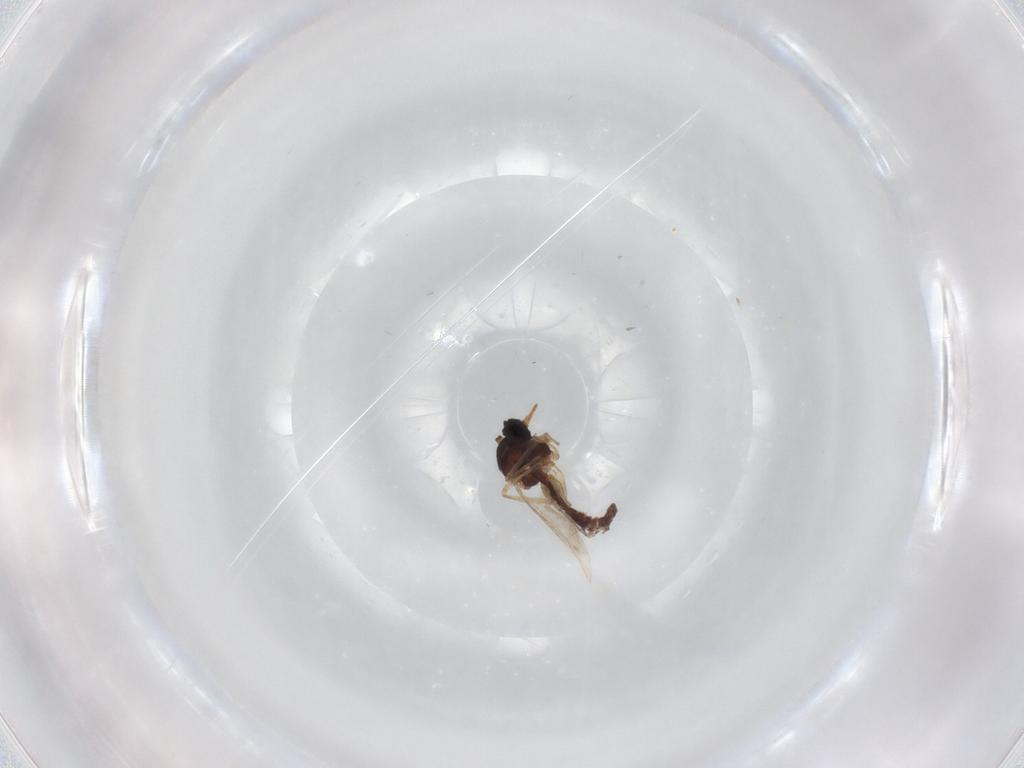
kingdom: Animalia
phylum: Arthropoda
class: Insecta
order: Diptera
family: Ceratopogonidae
